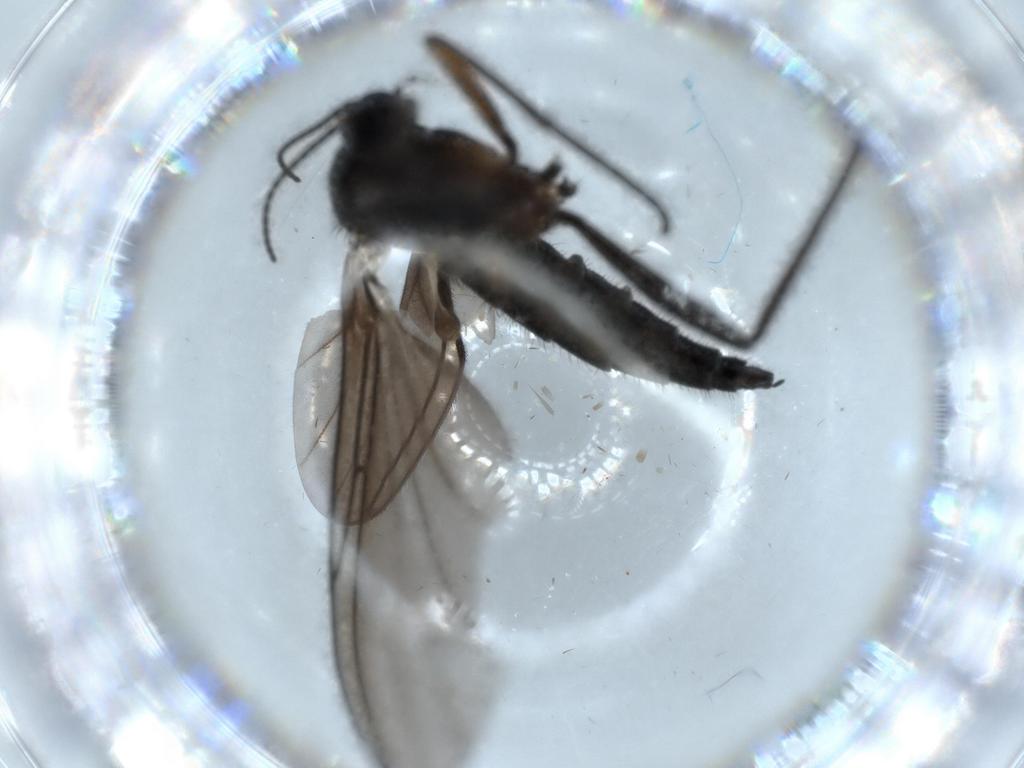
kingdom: Animalia
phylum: Arthropoda
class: Insecta
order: Diptera
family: Sciaridae
